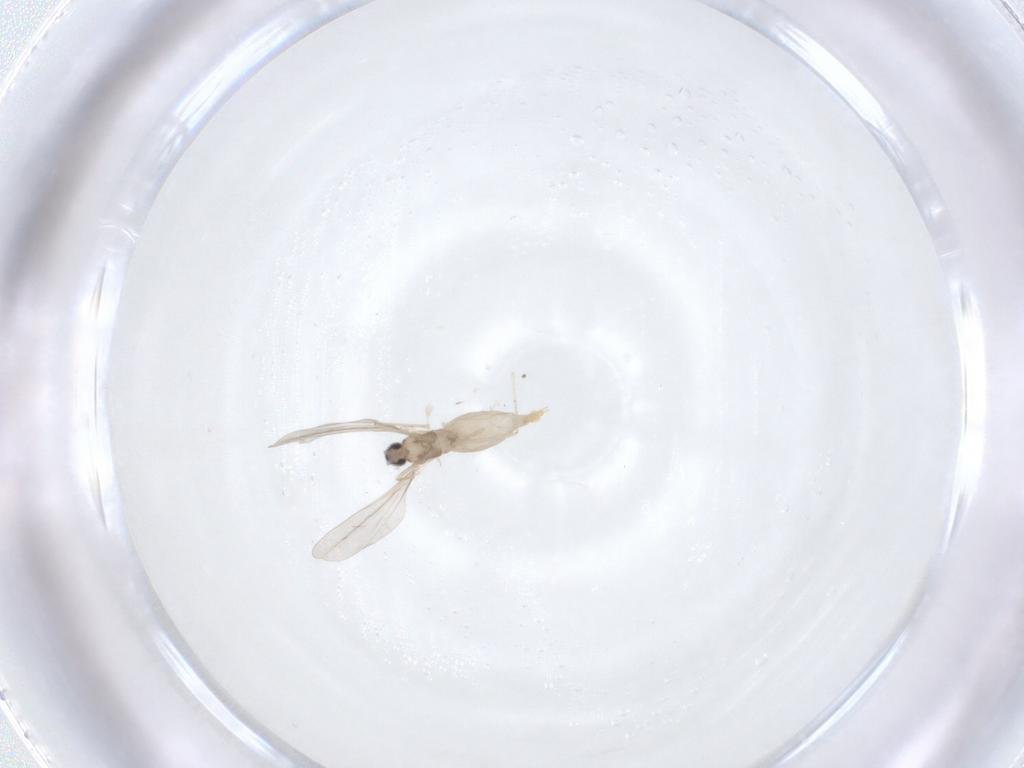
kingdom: Animalia
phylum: Arthropoda
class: Insecta
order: Diptera
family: Cecidomyiidae
